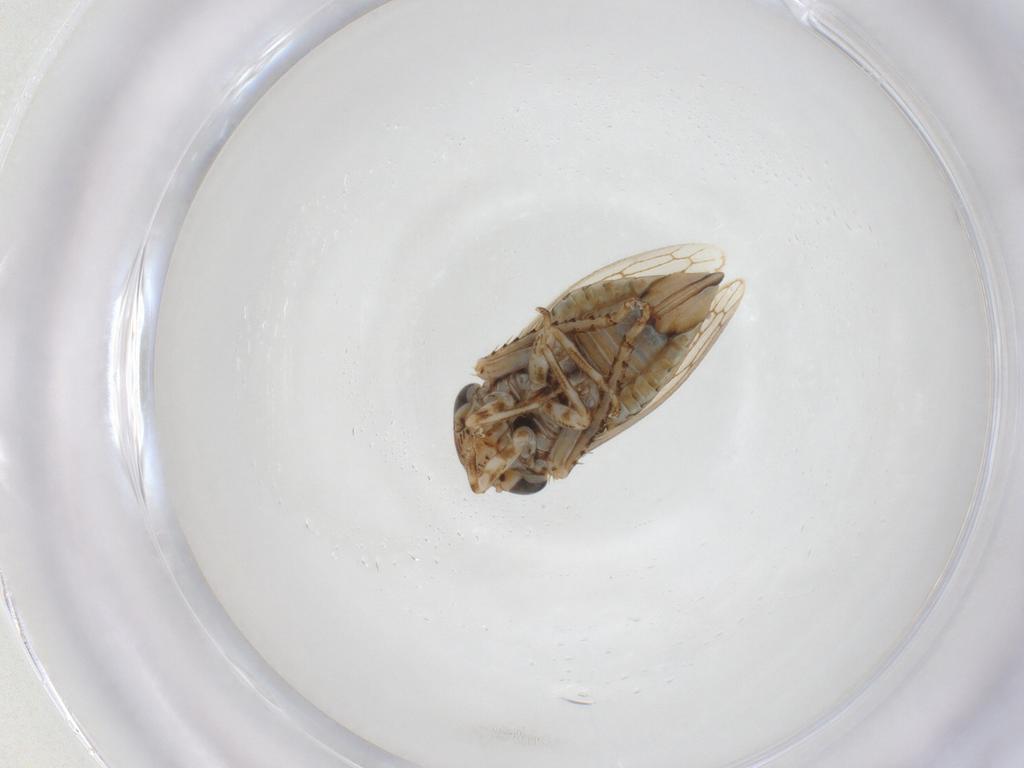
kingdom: Animalia
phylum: Arthropoda
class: Insecta
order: Hemiptera
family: Cicadellidae
